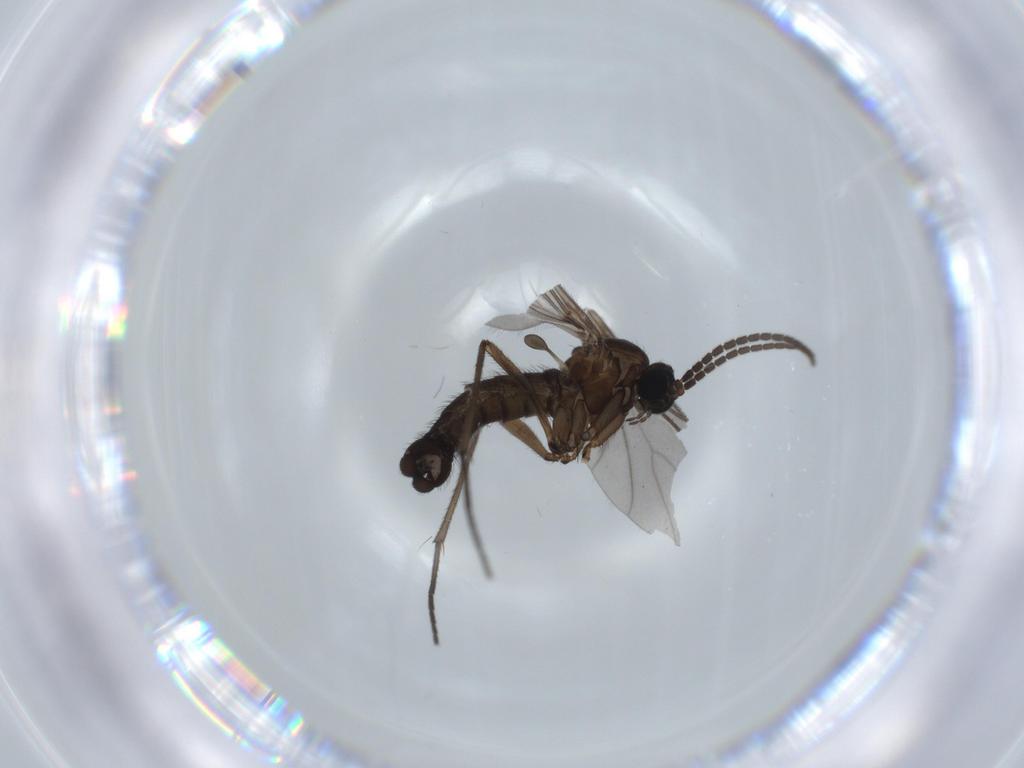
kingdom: Animalia
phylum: Arthropoda
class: Insecta
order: Diptera
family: Sciaridae
